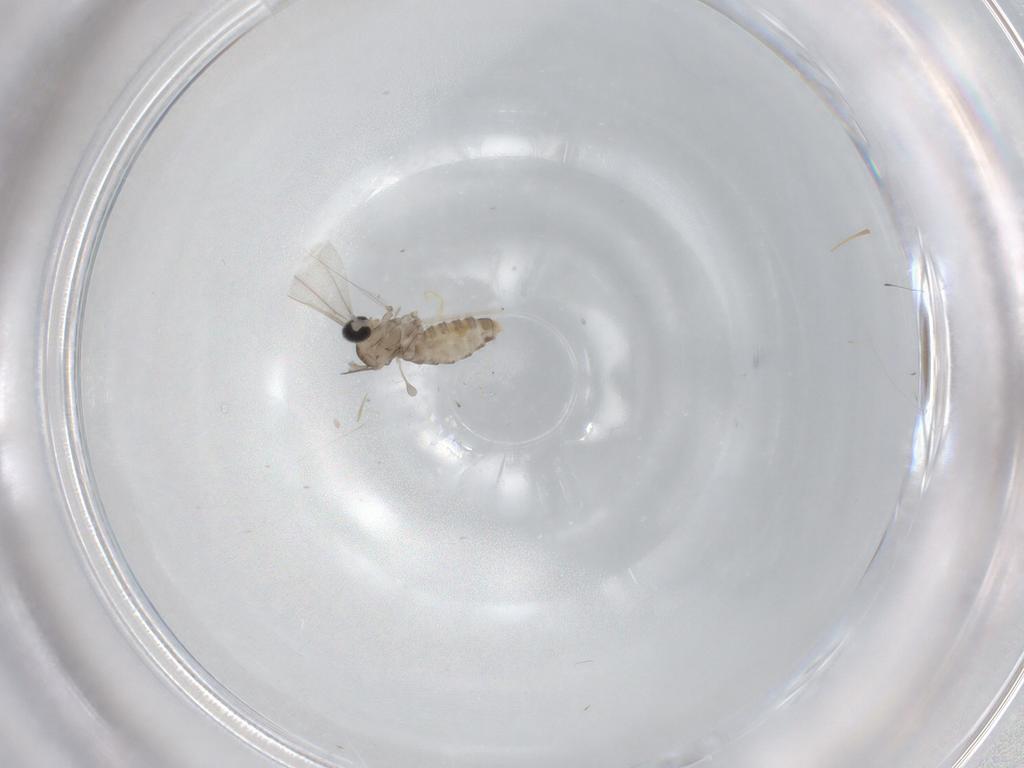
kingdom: Animalia
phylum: Arthropoda
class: Insecta
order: Diptera
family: Cecidomyiidae
